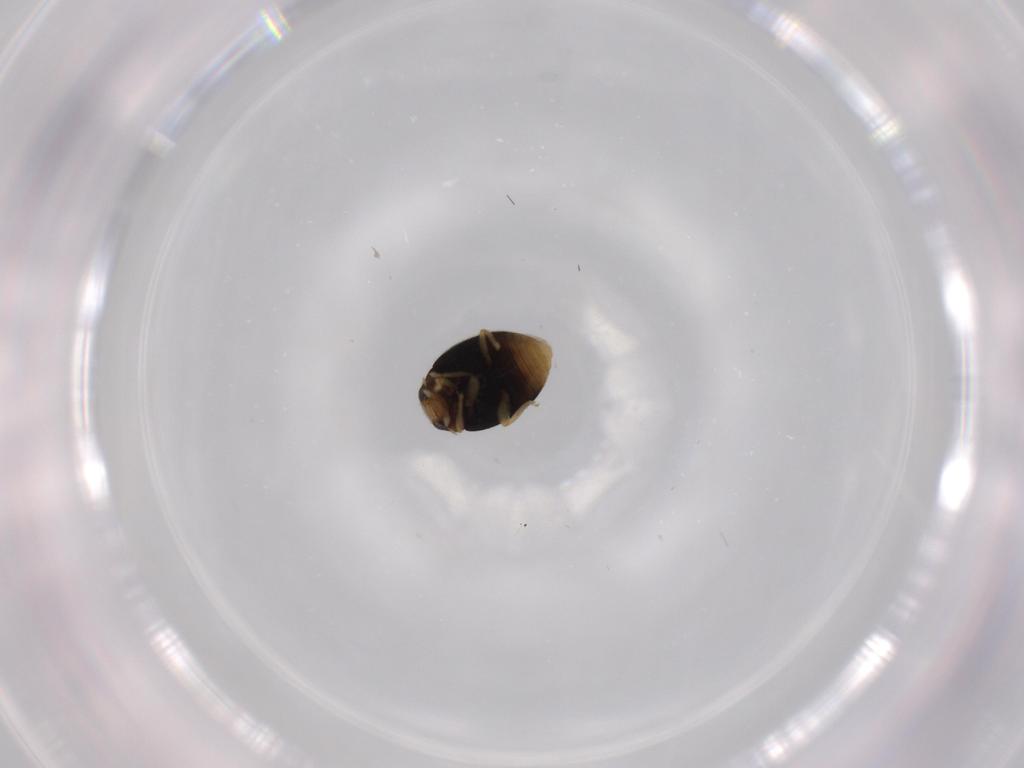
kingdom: Animalia
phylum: Arthropoda
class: Insecta
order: Coleoptera
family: Coccinellidae
